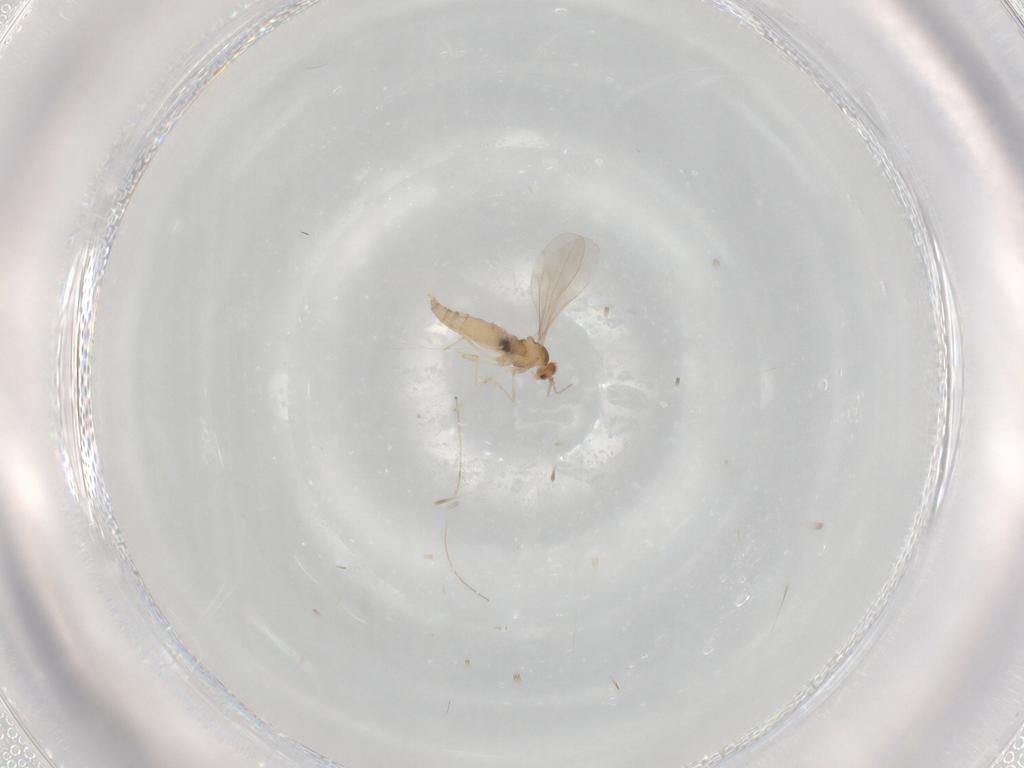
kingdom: Animalia
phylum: Arthropoda
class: Insecta
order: Diptera
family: Cecidomyiidae
